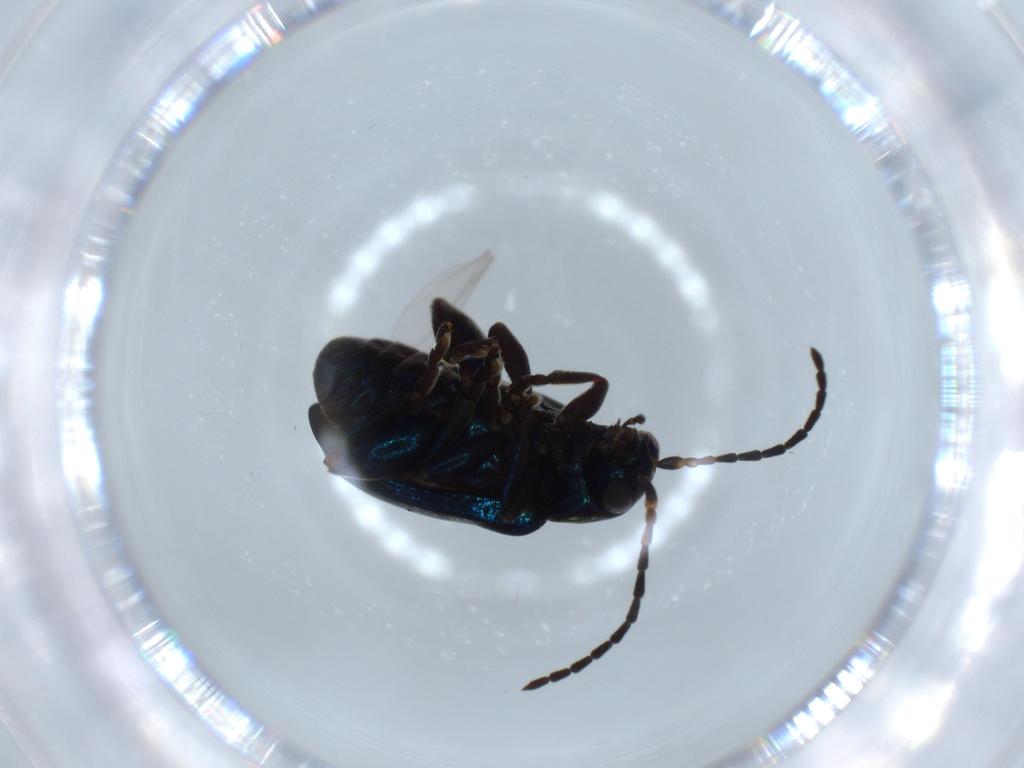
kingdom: Animalia
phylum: Arthropoda
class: Insecta
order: Coleoptera
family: Chrysomelidae
